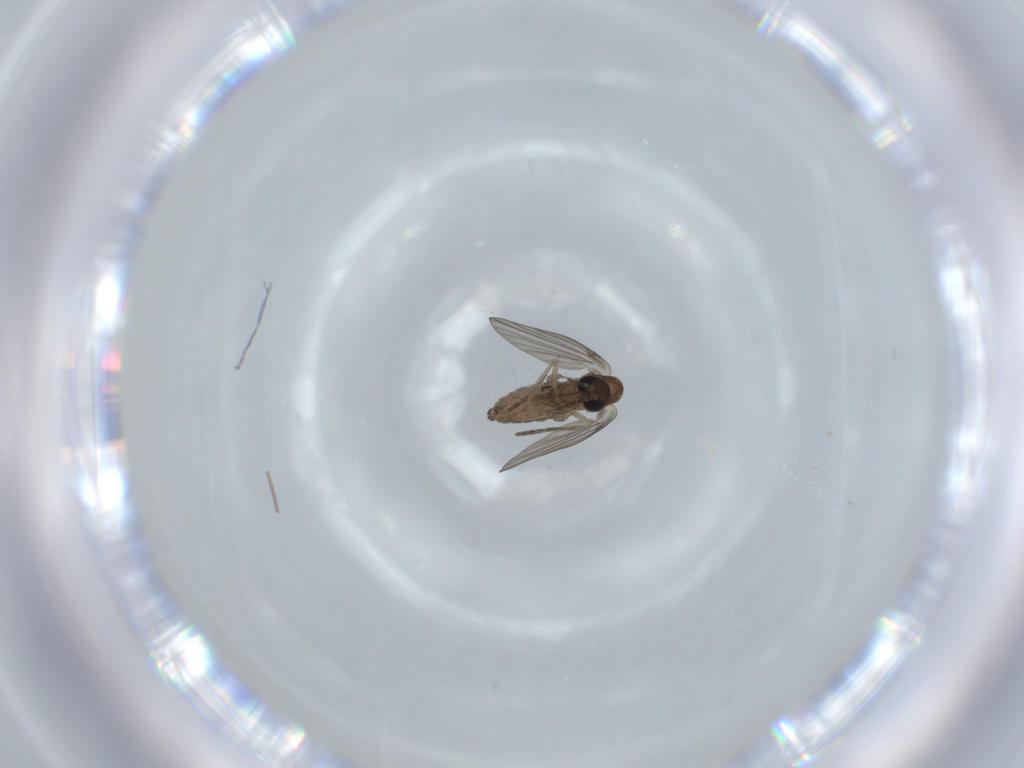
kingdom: Animalia
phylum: Arthropoda
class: Insecta
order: Diptera
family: Psychodidae
